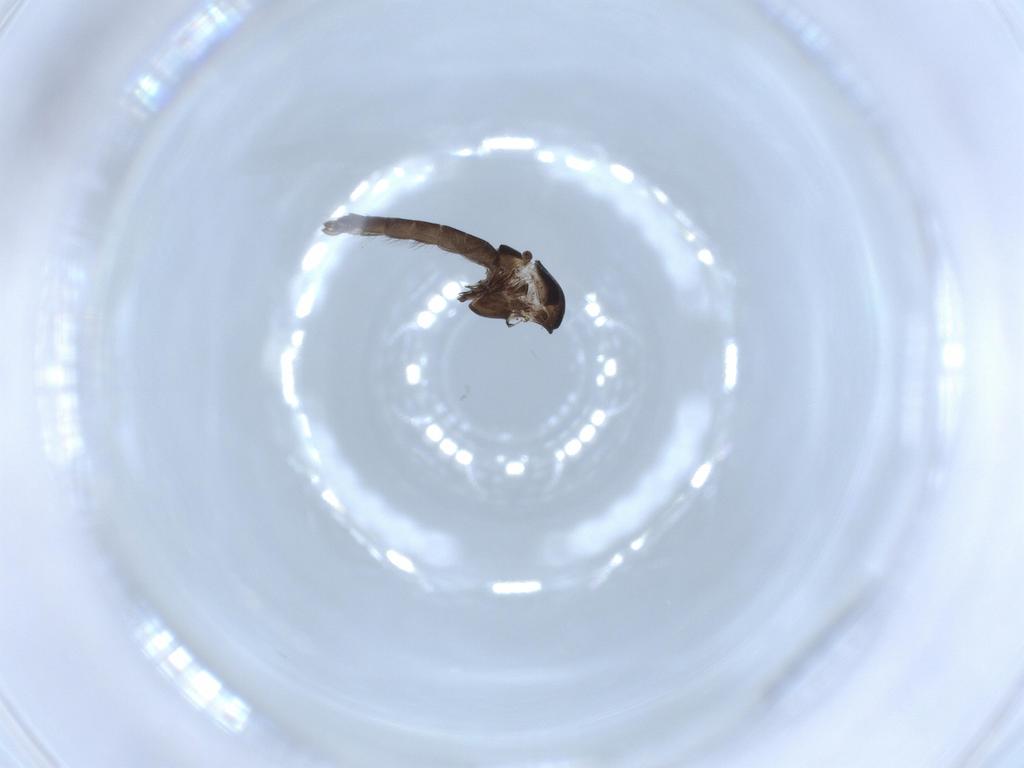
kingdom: Animalia
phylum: Arthropoda
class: Insecta
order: Diptera
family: Chironomidae
